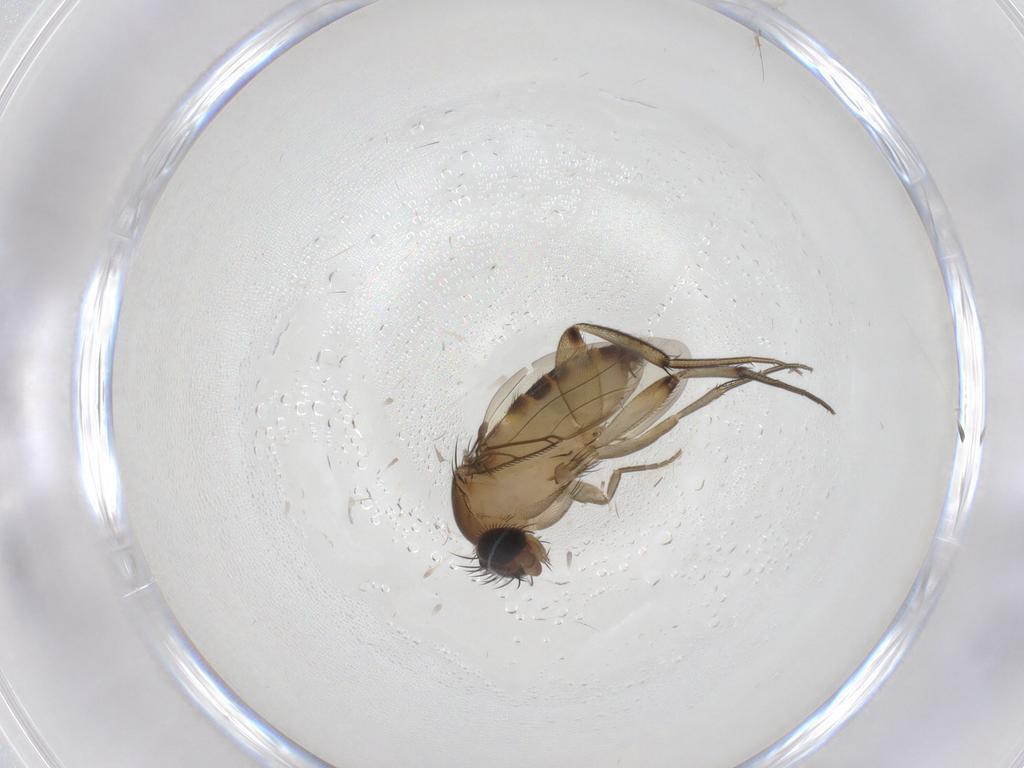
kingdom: Animalia
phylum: Arthropoda
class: Insecta
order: Diptera
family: Phoridae
